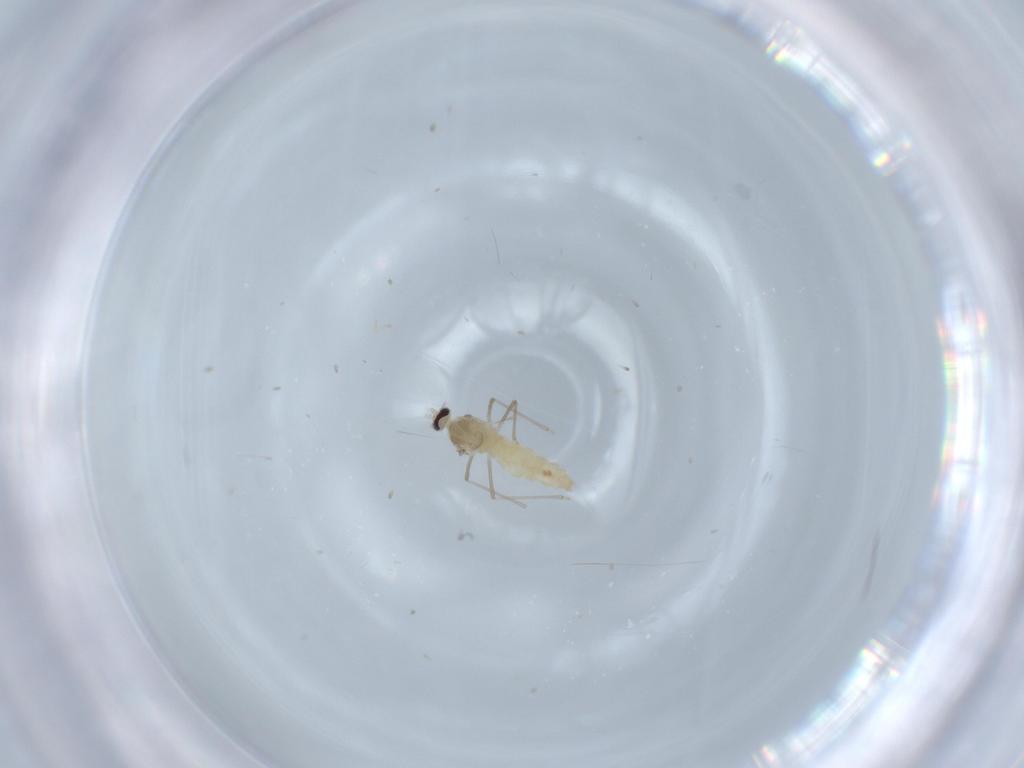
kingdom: Animalia
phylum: Arthropoda
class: Insecta
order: Diptera
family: Cecidomyiidae
